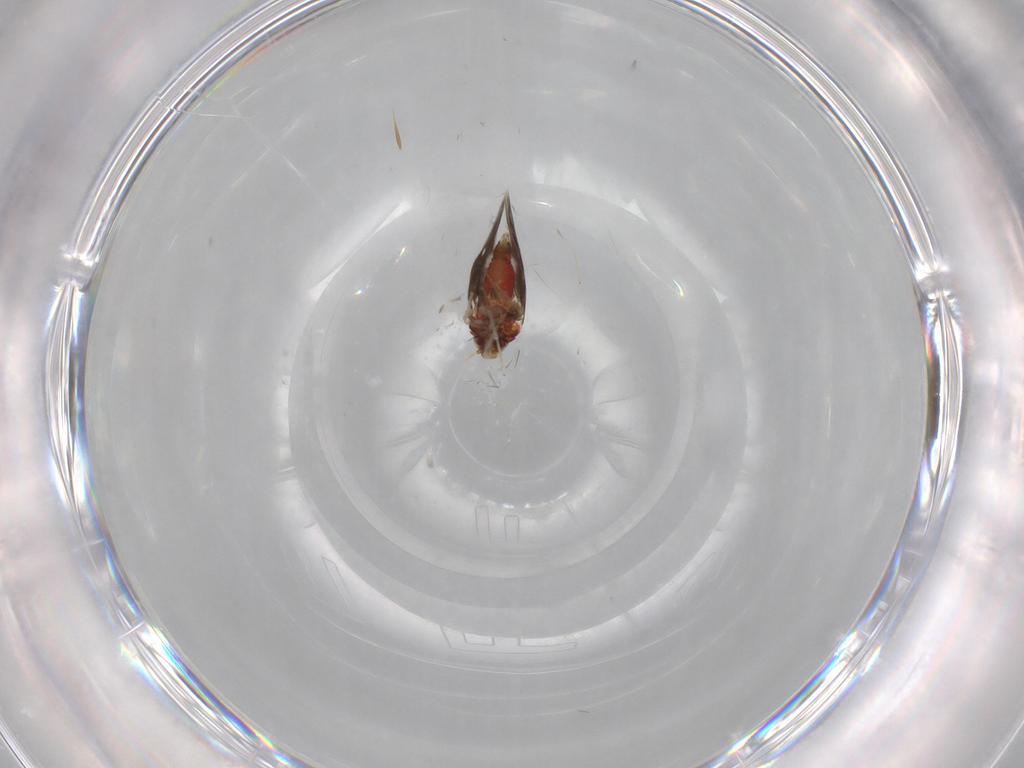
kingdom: Animalia
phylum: Arthropoda
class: Insecta
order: Hemiptera
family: Aleyrodidae
